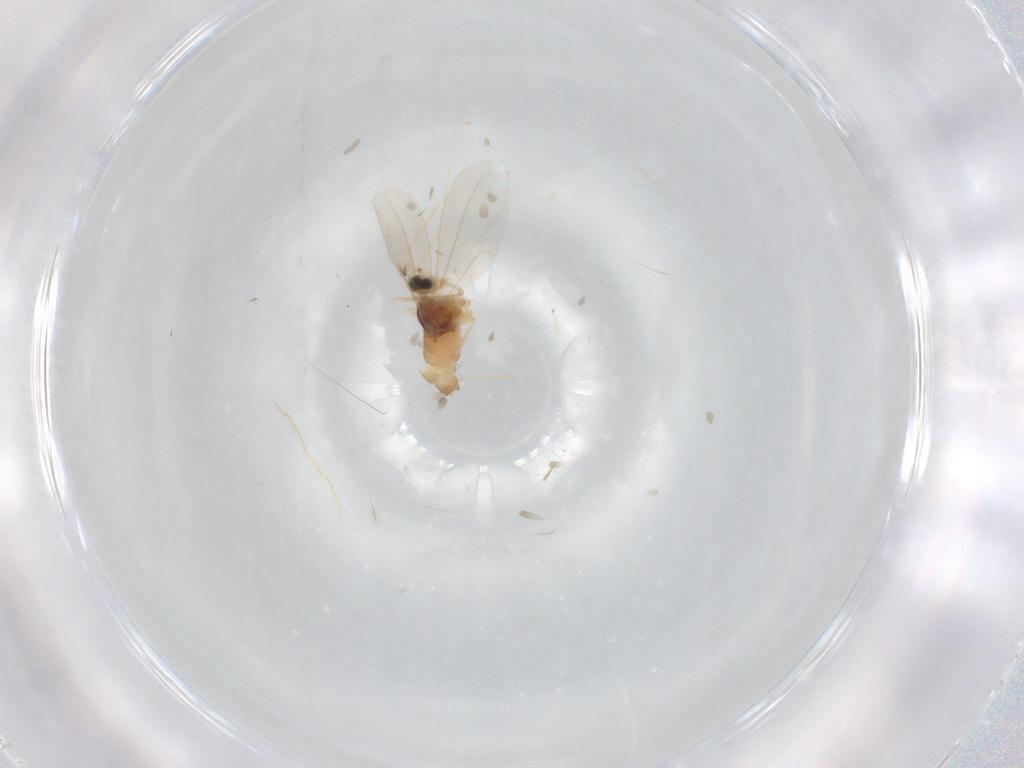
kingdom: Animalia
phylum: Arthropoda
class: Insecta
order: Diptera
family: Cecidomyiidae
